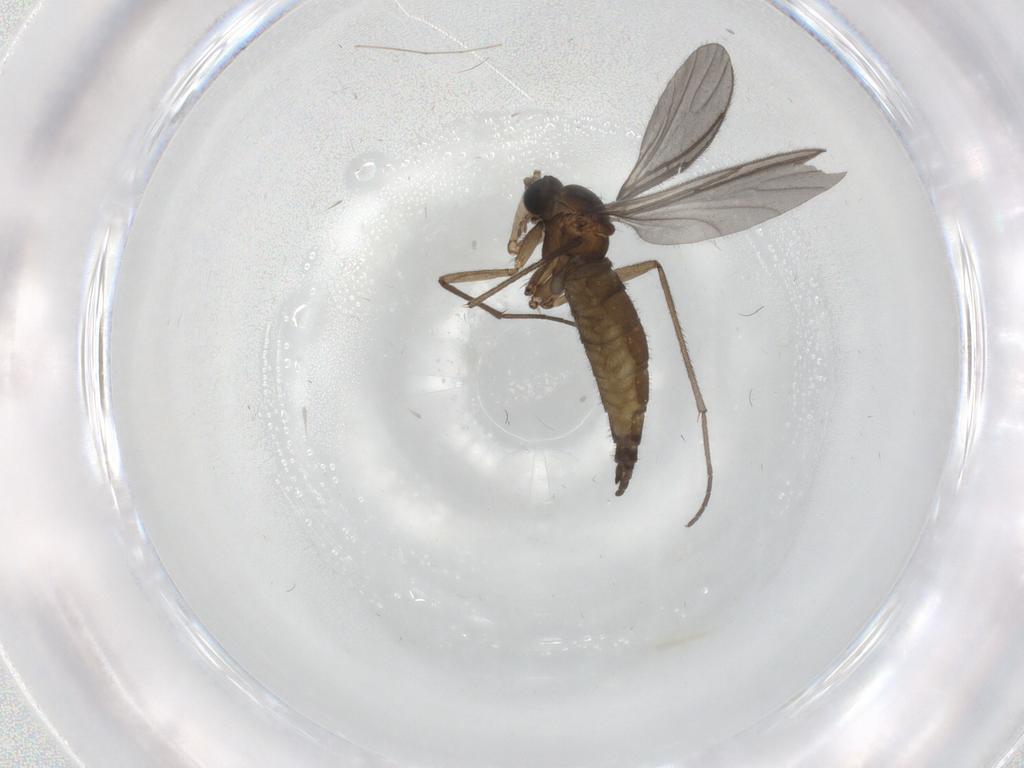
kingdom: Animalia
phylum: Arthropoda
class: Insecta
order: Diptera
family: Sciaridae
